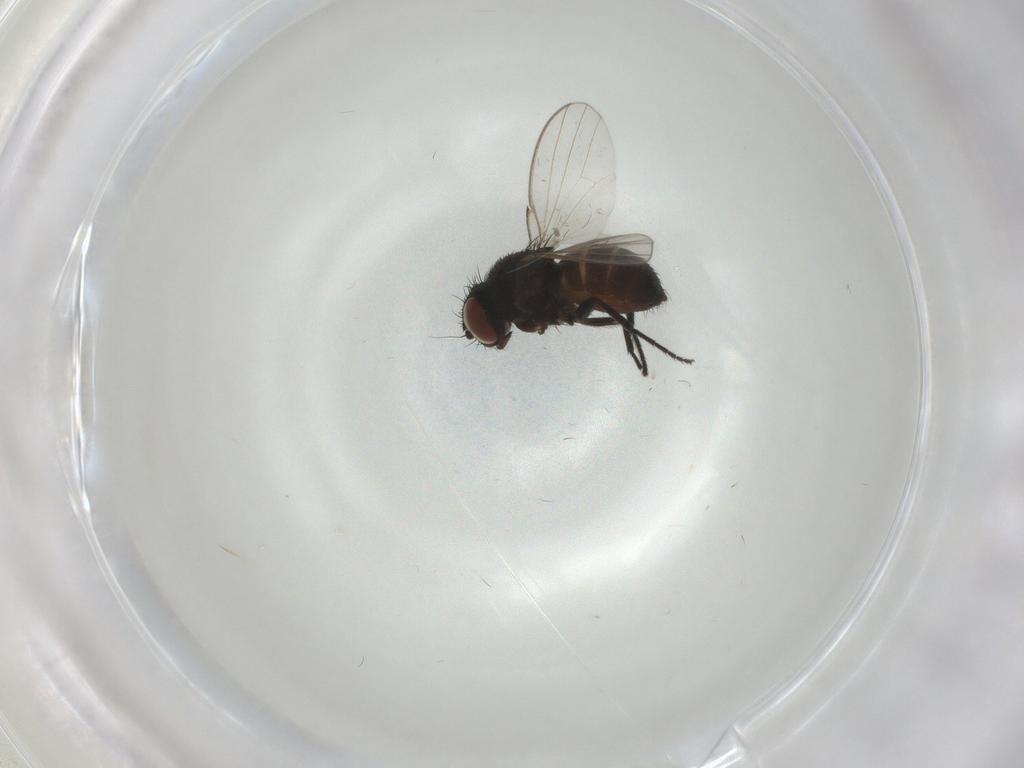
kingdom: Animalia
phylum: Arthropoda
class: Insecta
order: Diptera
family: Milichiidae
